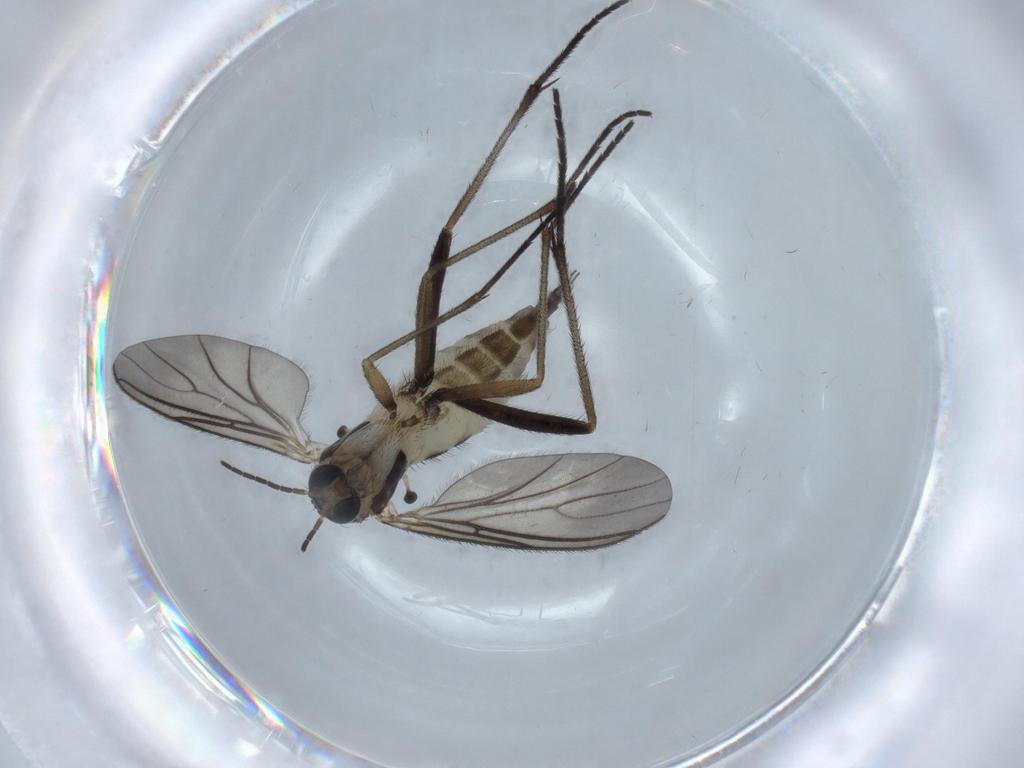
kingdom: Animalia
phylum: Arthropoda
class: Insecta
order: Diptera
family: Sciaridae
